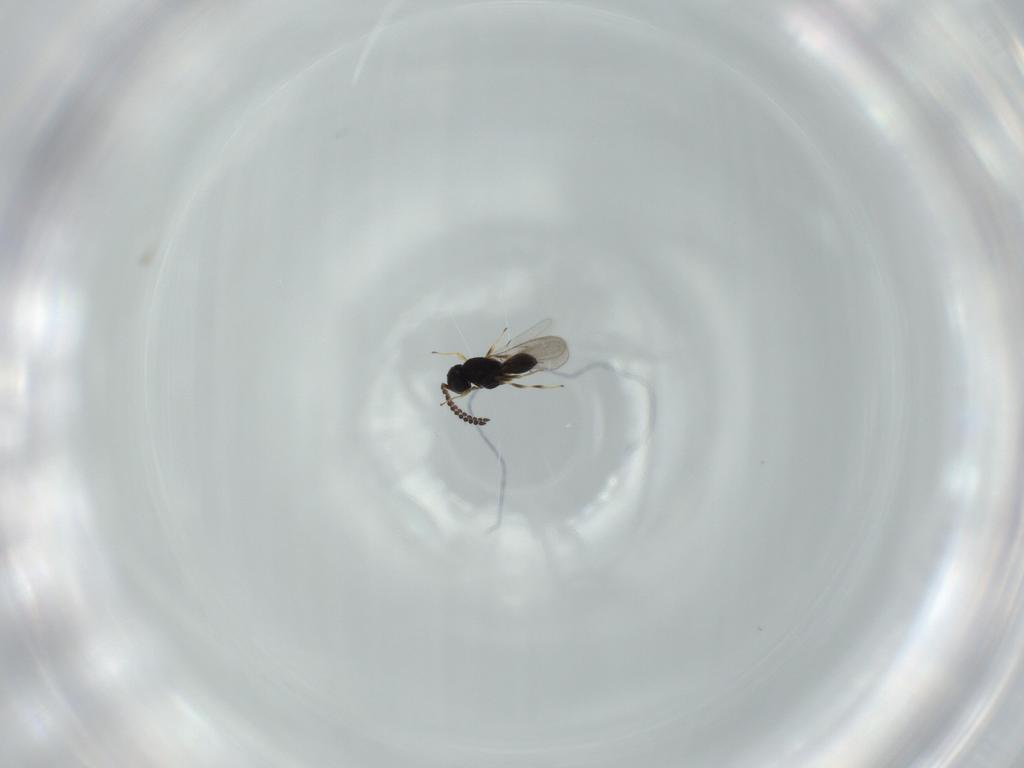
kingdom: Animalia
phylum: Arthropoda
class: Insecta
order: Hymenoptera
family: Scelionidae
